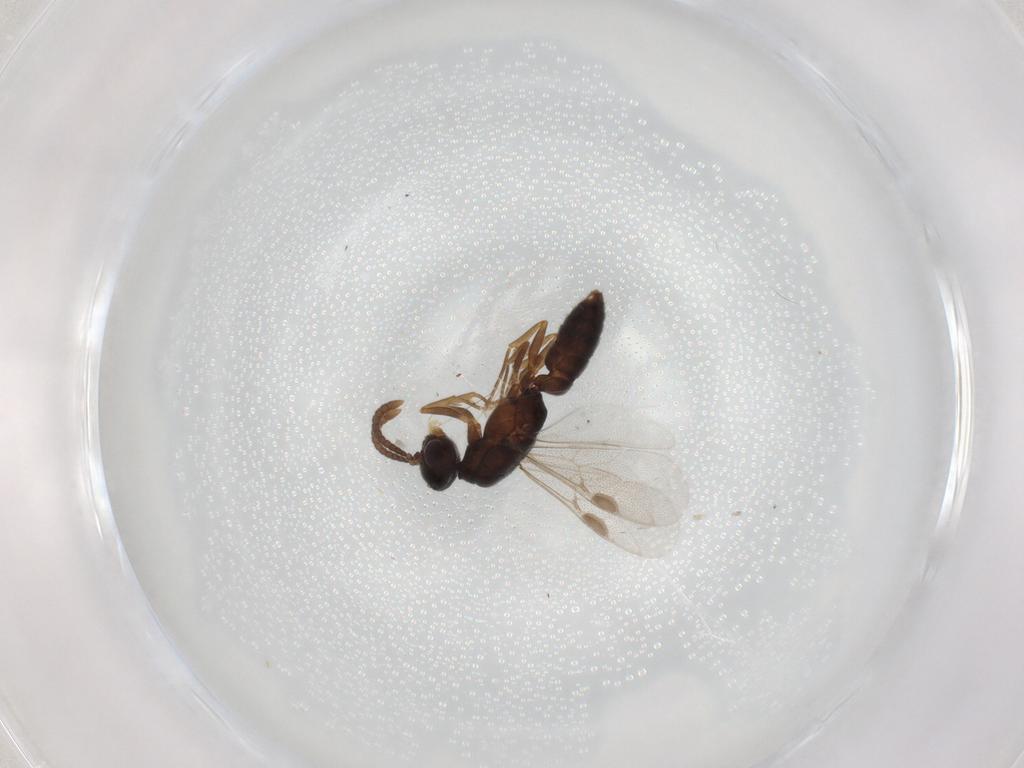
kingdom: Animalia
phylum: Arthropoda
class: Insecta
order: Hymenoptera
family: Formicidae
